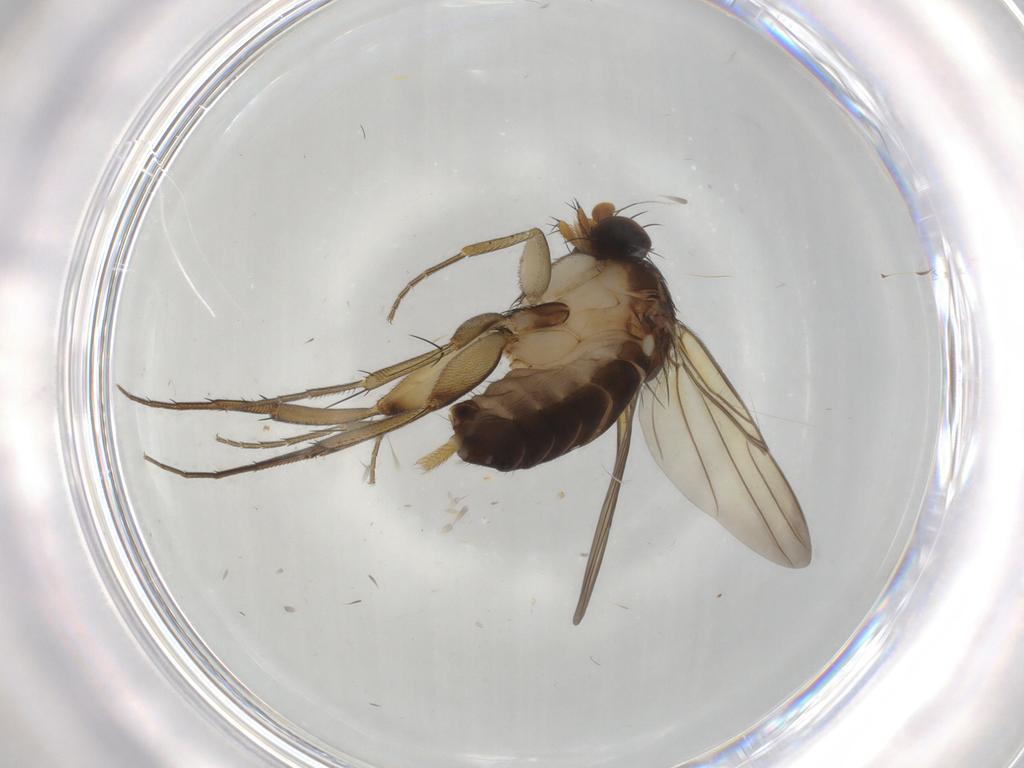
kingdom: Animalia
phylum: Arthropoda
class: Insecta
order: Diptera
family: Phoridae
